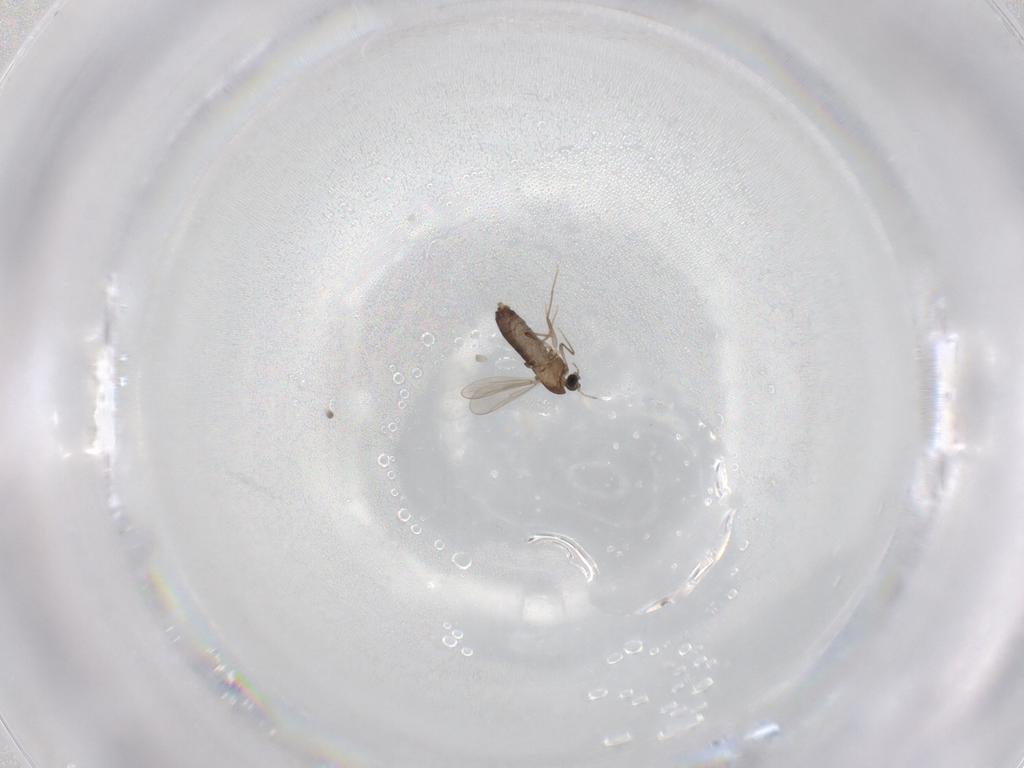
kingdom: Animalia
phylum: Arthropoda
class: Insecta
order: Diptera
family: Chironomidae
